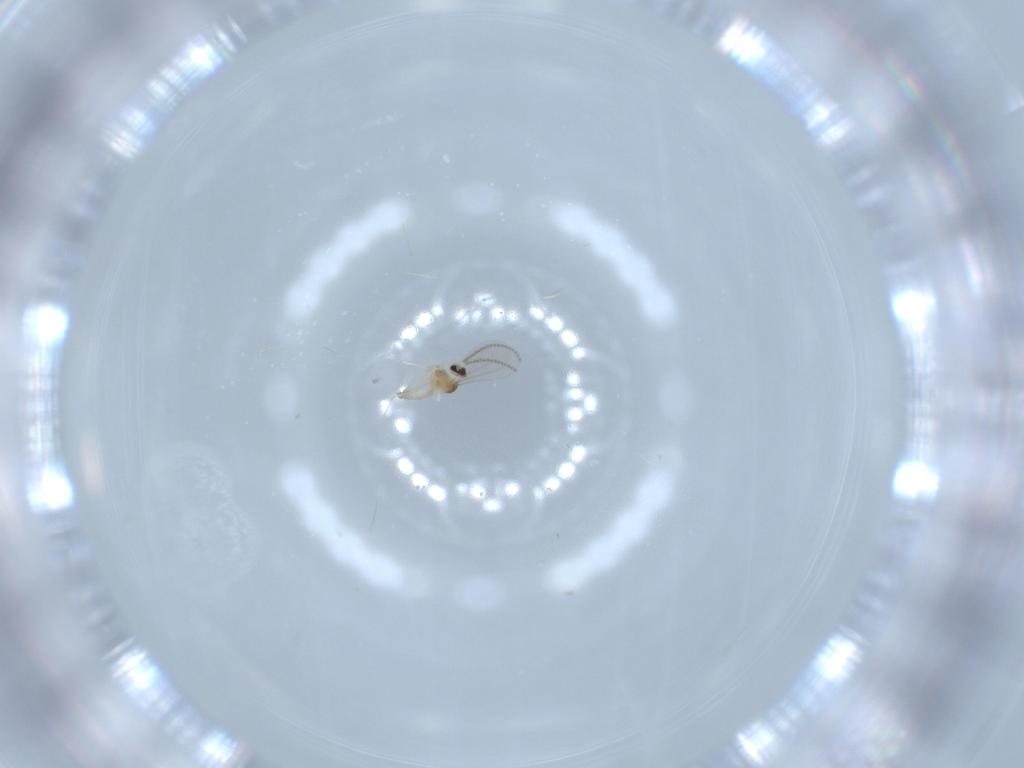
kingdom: Animalia
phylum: Arthropoda
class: Insecta
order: Diptera
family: Cecidomyiidae
